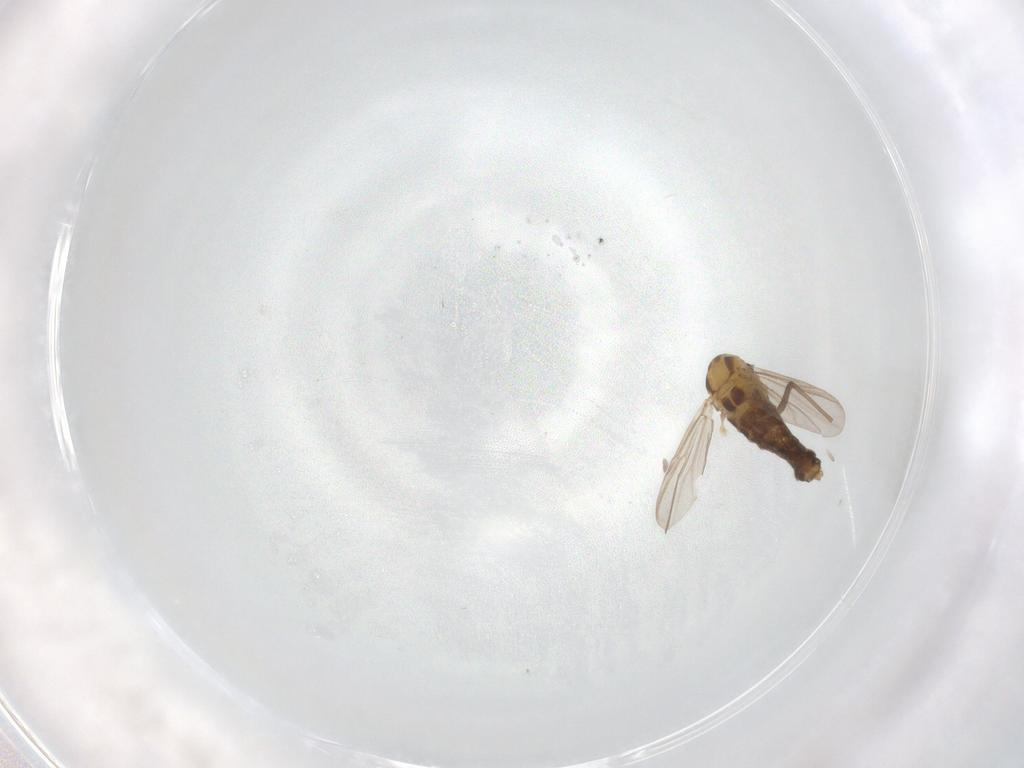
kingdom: Animalia
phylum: Arthropoda
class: Insecta
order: Diptera
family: Chironomidae
